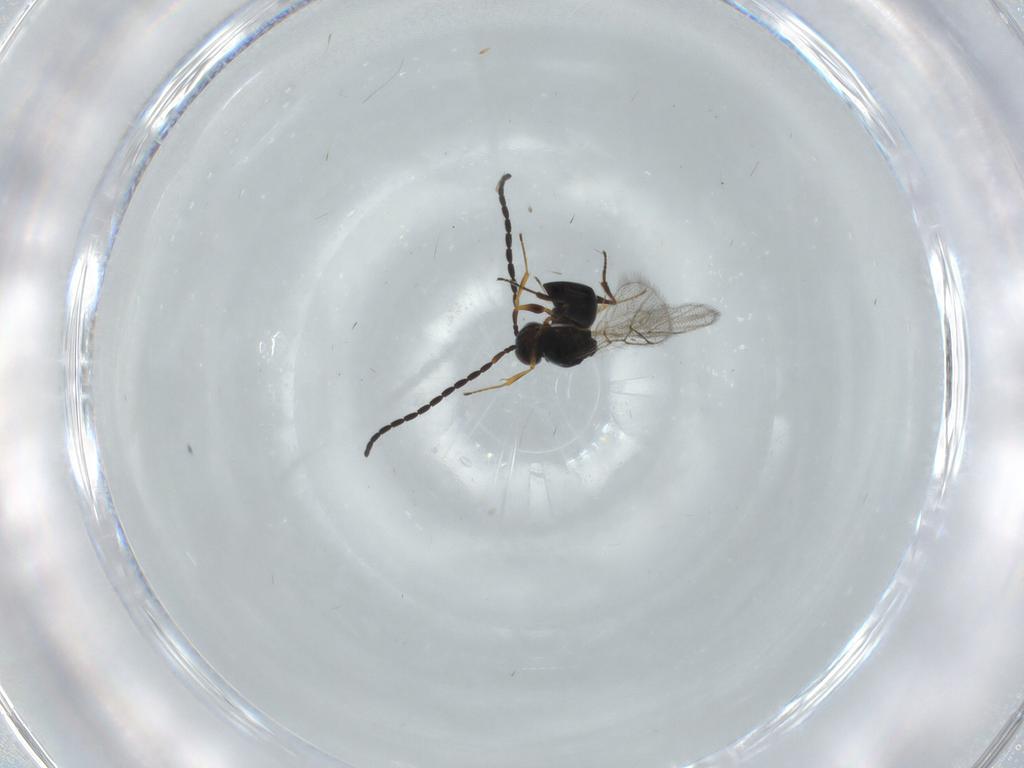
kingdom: Animalia
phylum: Arthropoda
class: Insecta
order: Hymenoptera
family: Figitidae
